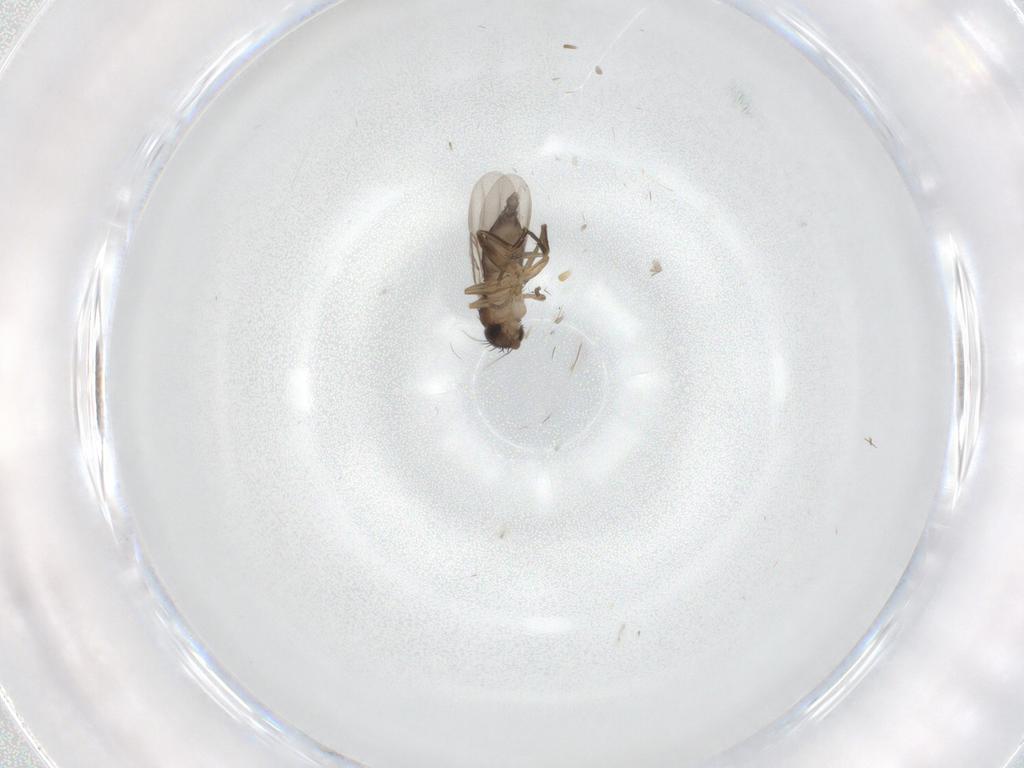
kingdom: Animalia
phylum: Arthropoda
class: Insecta
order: Diptera
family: Phoridae
